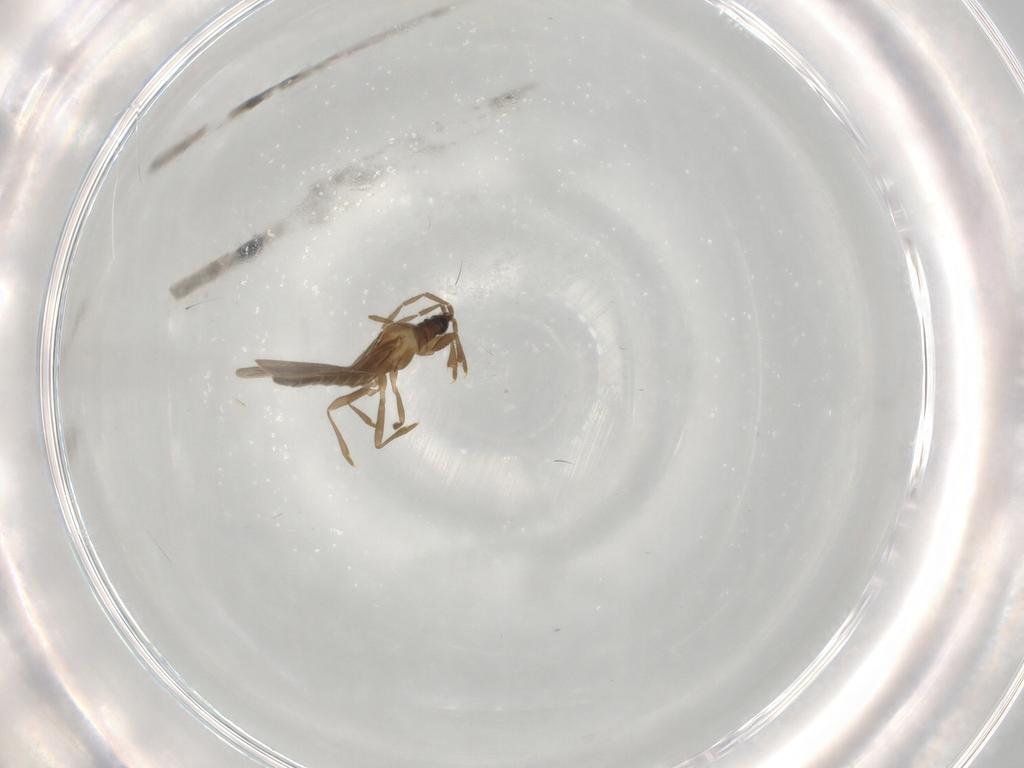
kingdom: Animalia
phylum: Arthropoda
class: Insecta
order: Hemiptera
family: Enicocephalidae
